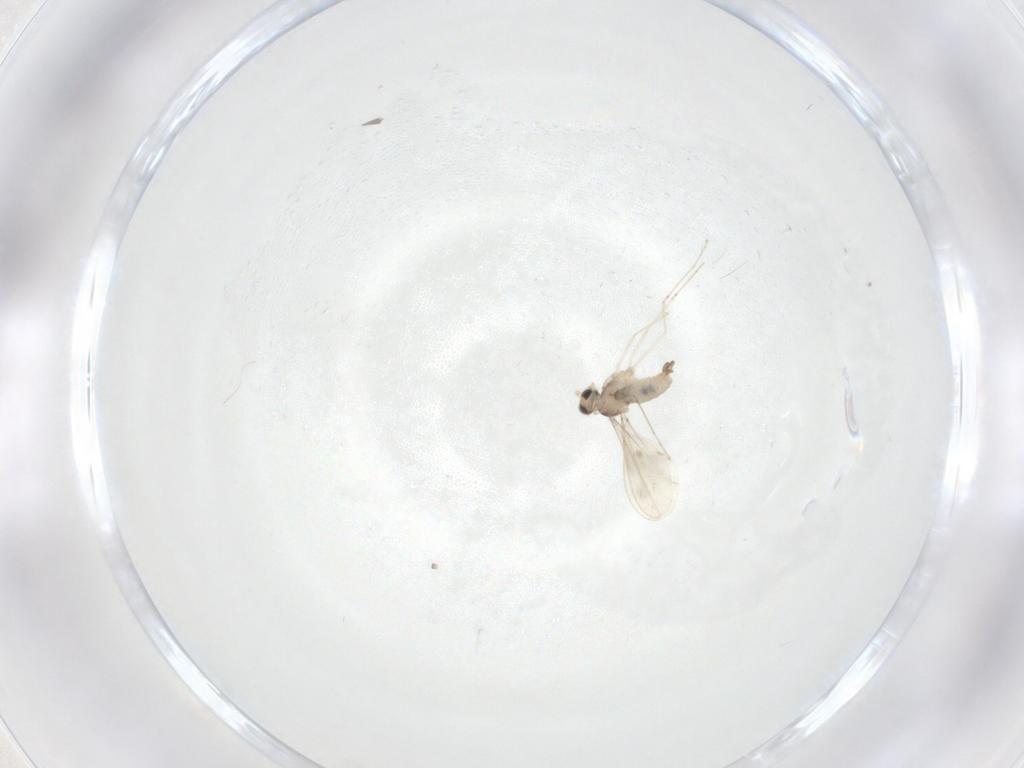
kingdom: Animalia
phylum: Arthropoda
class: Insecta
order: Diptera
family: Cecidomyiidae
